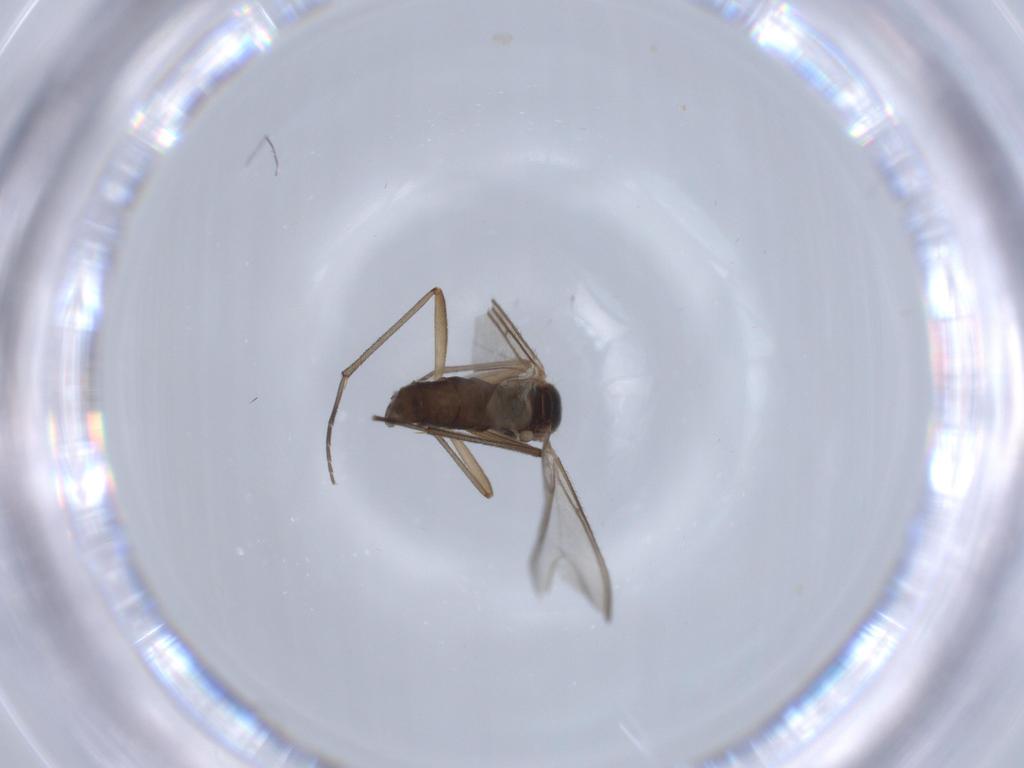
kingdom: Animalia
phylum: Arthropoda
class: Insecta
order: Diptera
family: Sciaridae
